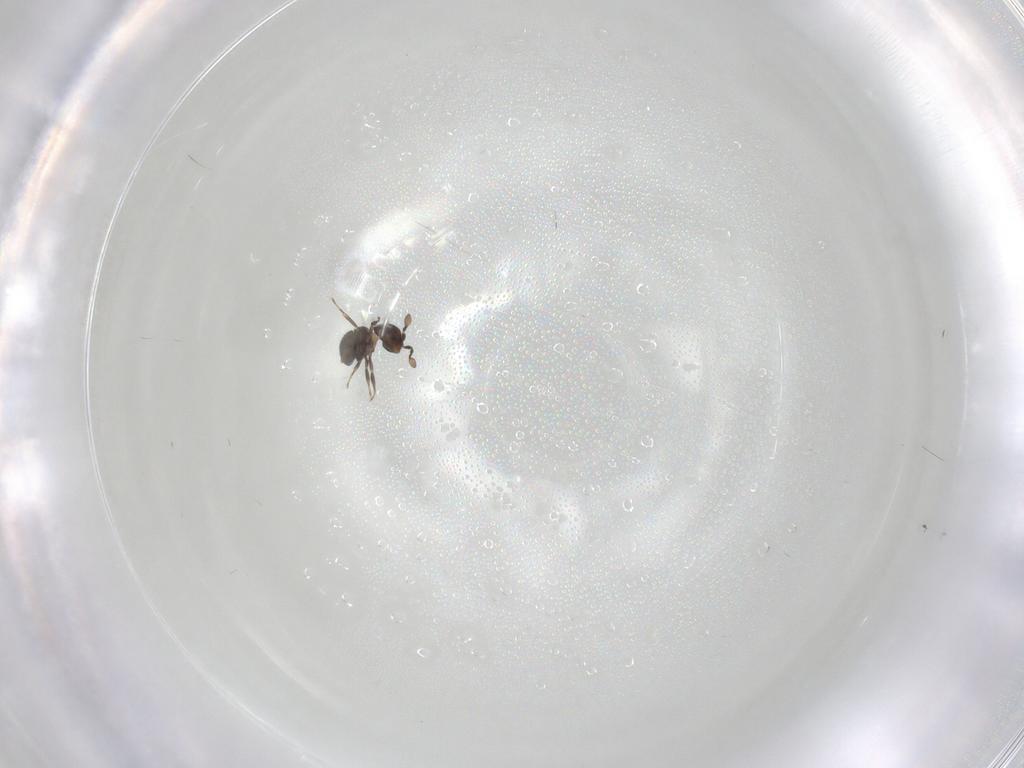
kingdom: Animalia
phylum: Arthropoda
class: Insecta
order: Hymenoptera
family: Scelionidae
